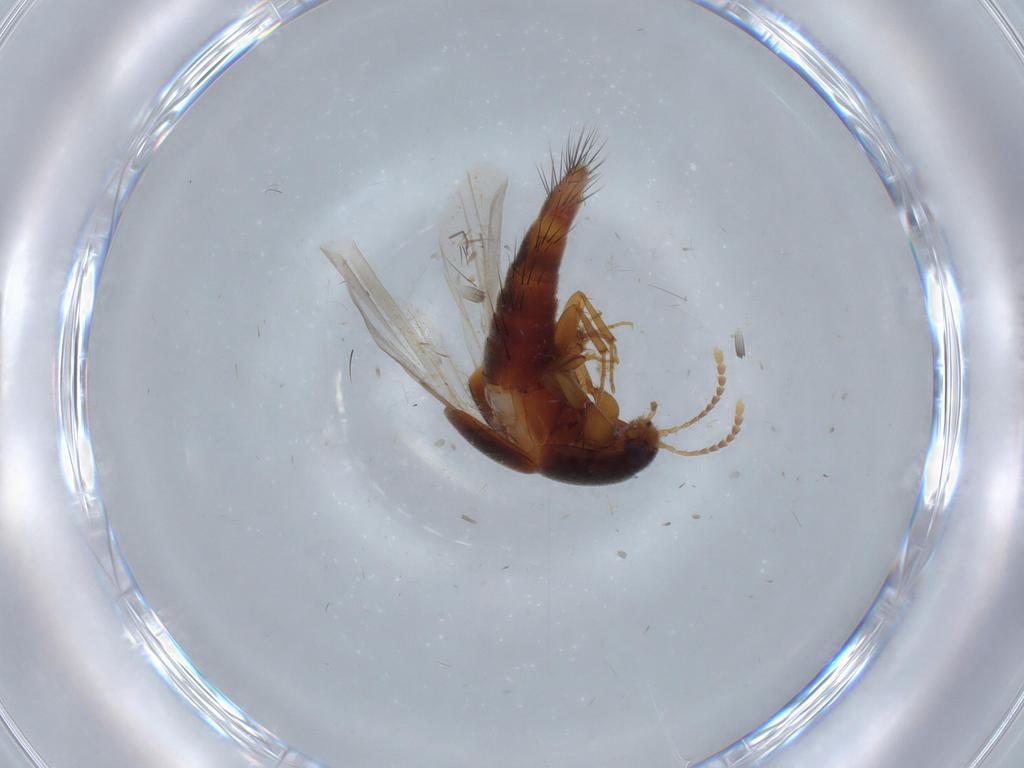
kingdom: Animalia
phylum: Arthropoda
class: Insecta
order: Coleoptera
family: Staphylinidae
